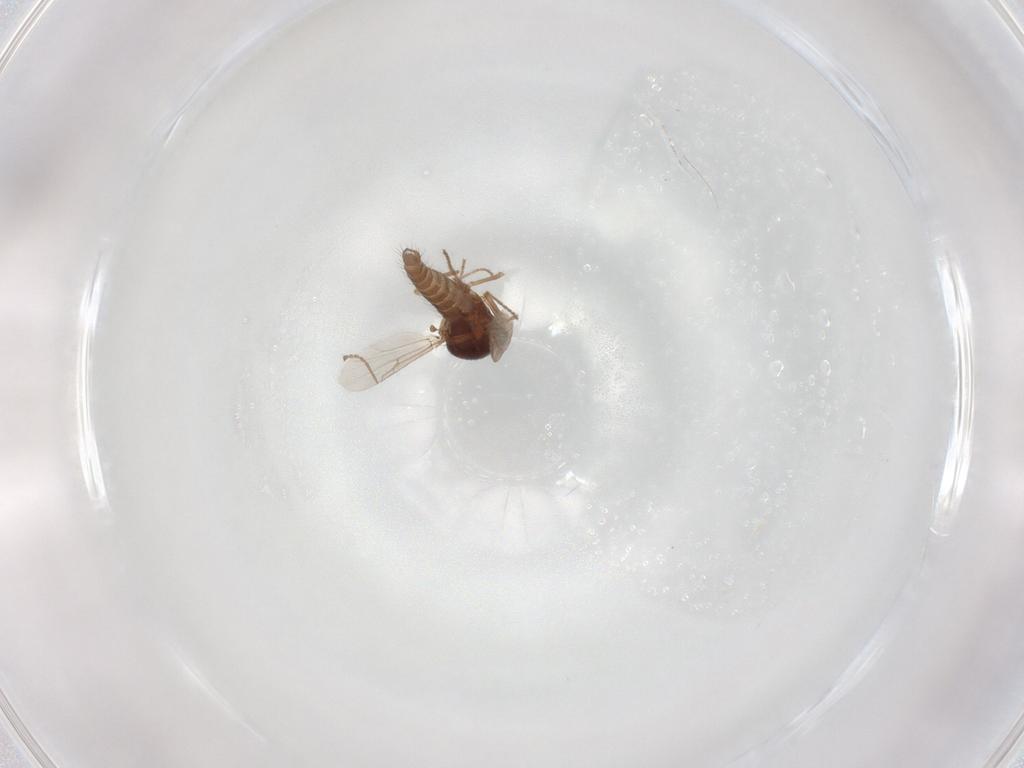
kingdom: Animalia
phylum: Arthropoda
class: Insecta
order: Diptera
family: Ceratopogonidae
